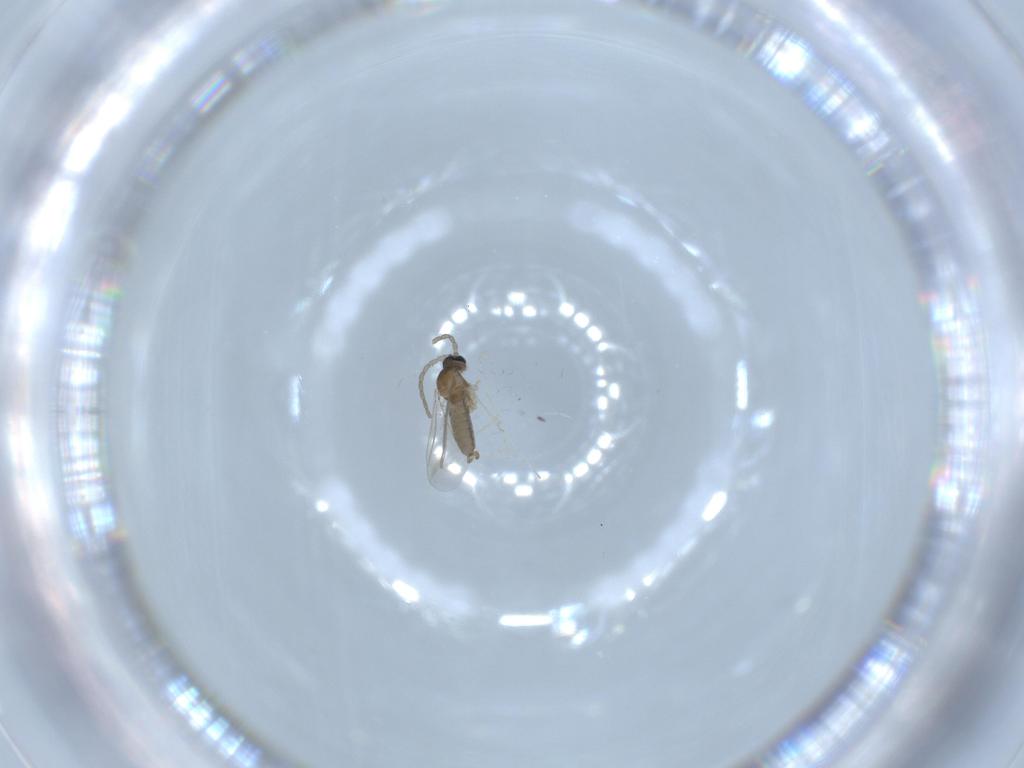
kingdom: Animalia
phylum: Arthropoda
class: Insecta
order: Diptera
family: Cecidomyiidae
